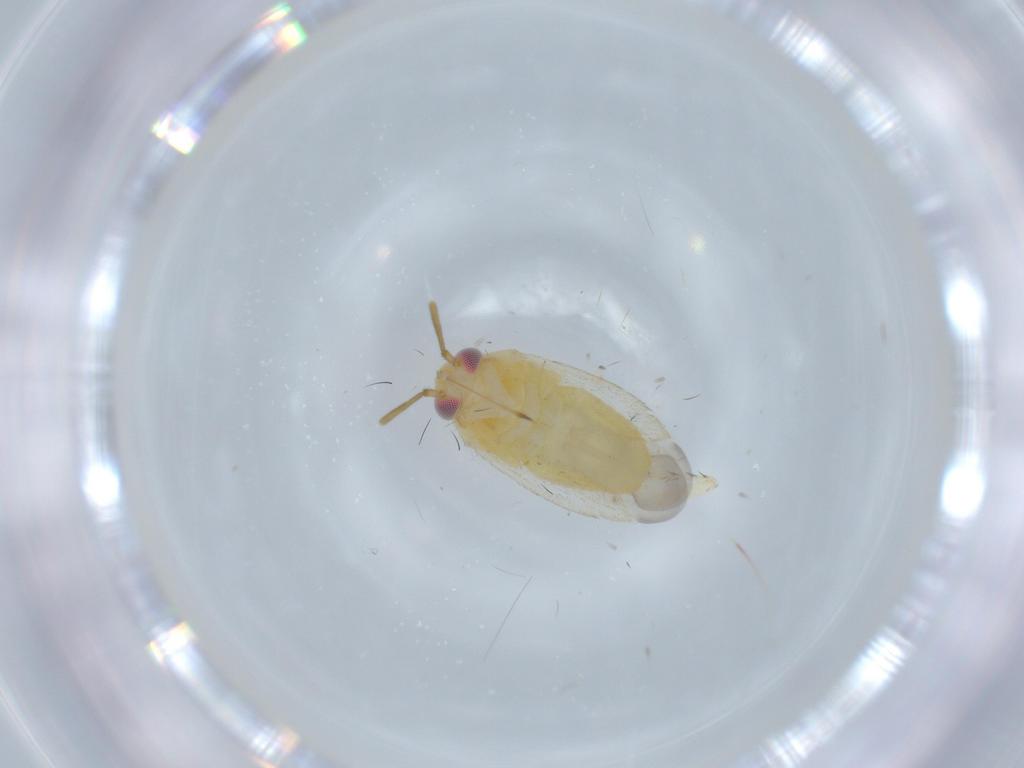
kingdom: Animalia
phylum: Arthropoda
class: Insecta
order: Hemiptera
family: Miridae
